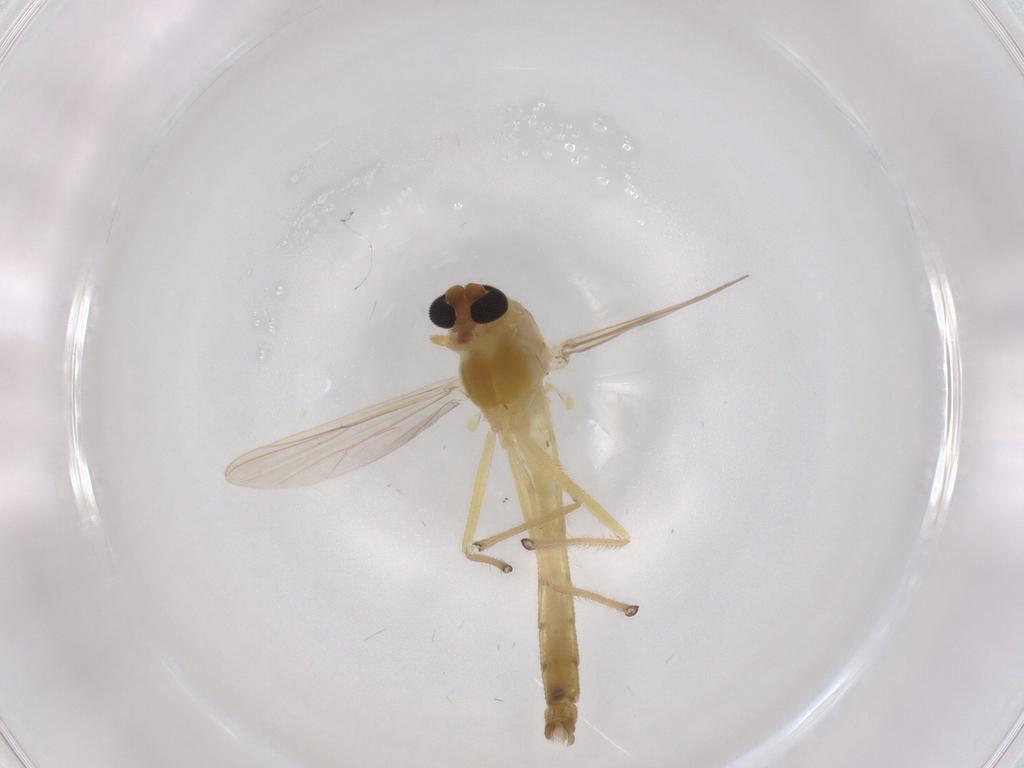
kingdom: Animalia
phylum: Arthropoda
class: Insecta
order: Diptera
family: Chironomidae
